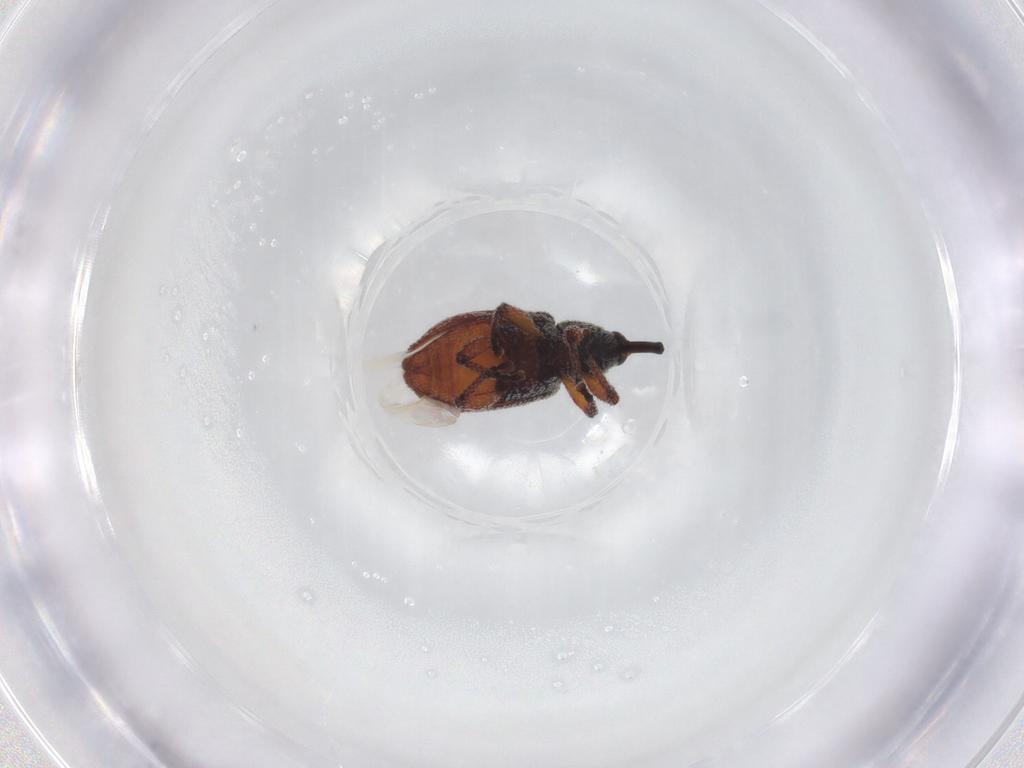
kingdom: Animalia
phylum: Arthropoda
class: Insecta
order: Coleoptera
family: Curculionidae
